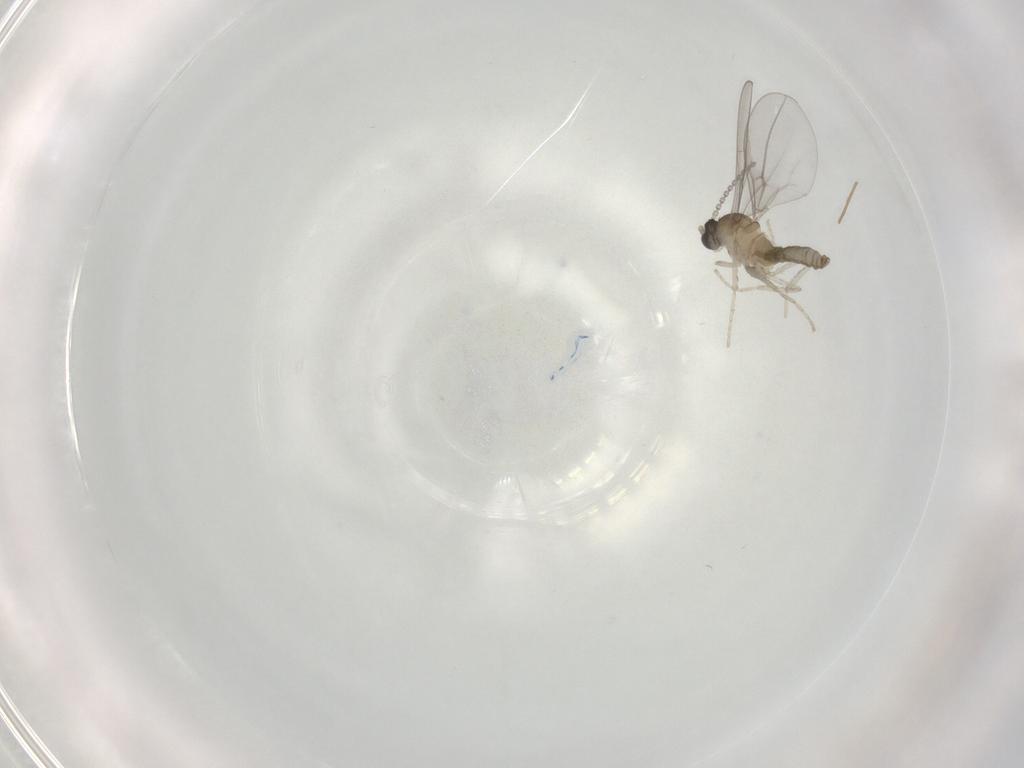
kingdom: Animalia
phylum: Arthropoda
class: Insecta
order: Diptera
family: Cecidomyiidae
